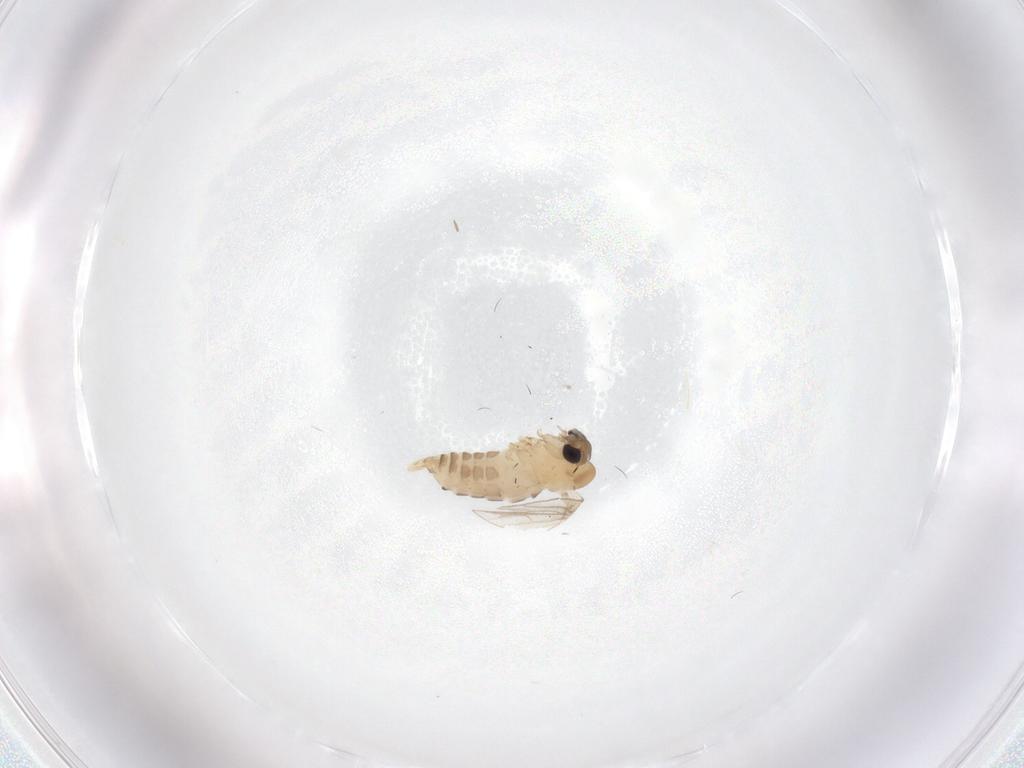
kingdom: Animalia
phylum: Arthropoda
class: Insecta
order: Diptera
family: Psychodidae
